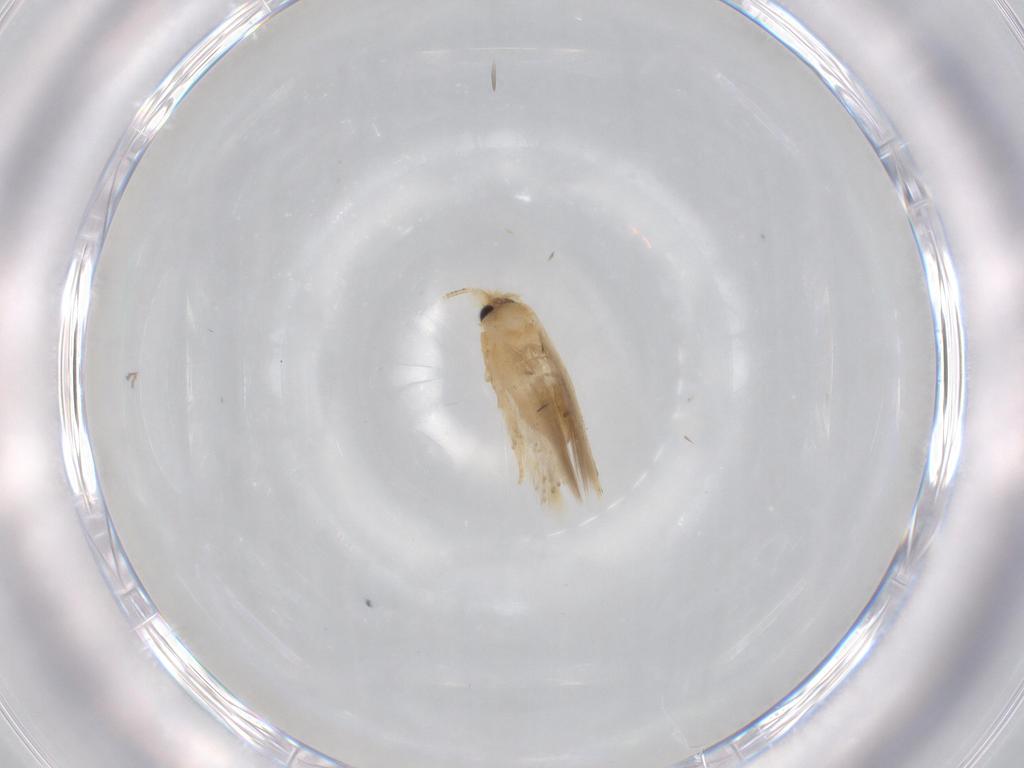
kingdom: Animalia
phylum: Arthropoda
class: Insecta
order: Lepidoptera
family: Nepticulidae
